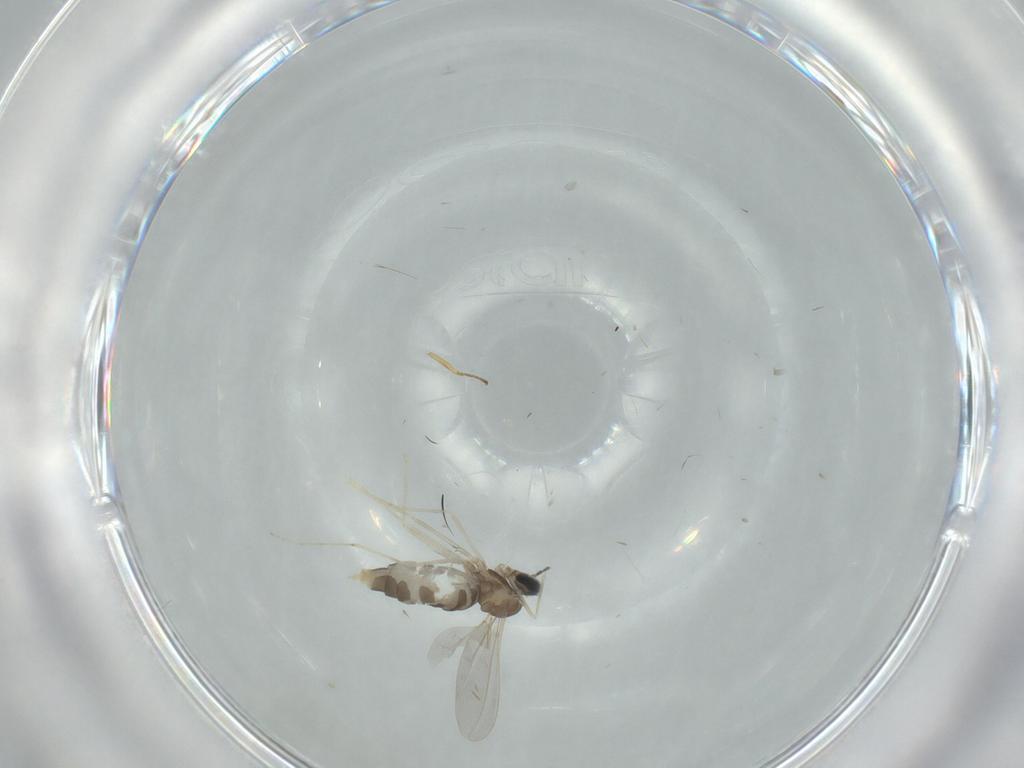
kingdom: Animalia
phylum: Arthropoda
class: Insecta
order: Diptera
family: Cecidomyiidae
